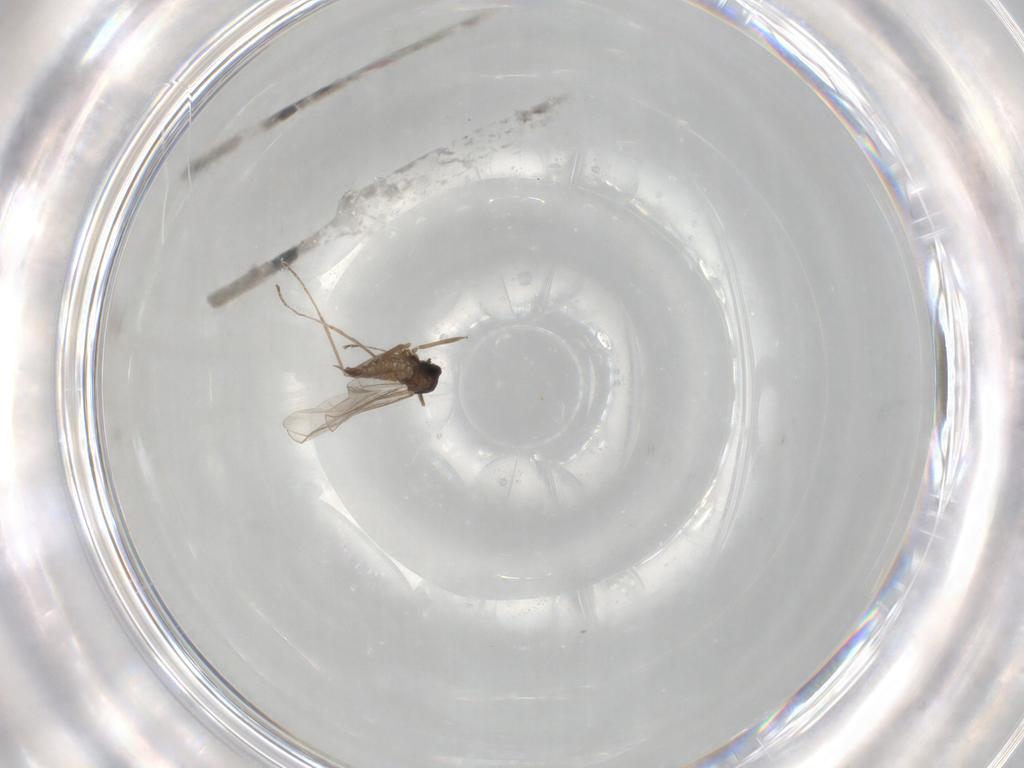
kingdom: Animalia
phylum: Arthropoda
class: Insecta
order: Diptera
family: Cecidomyiidae
